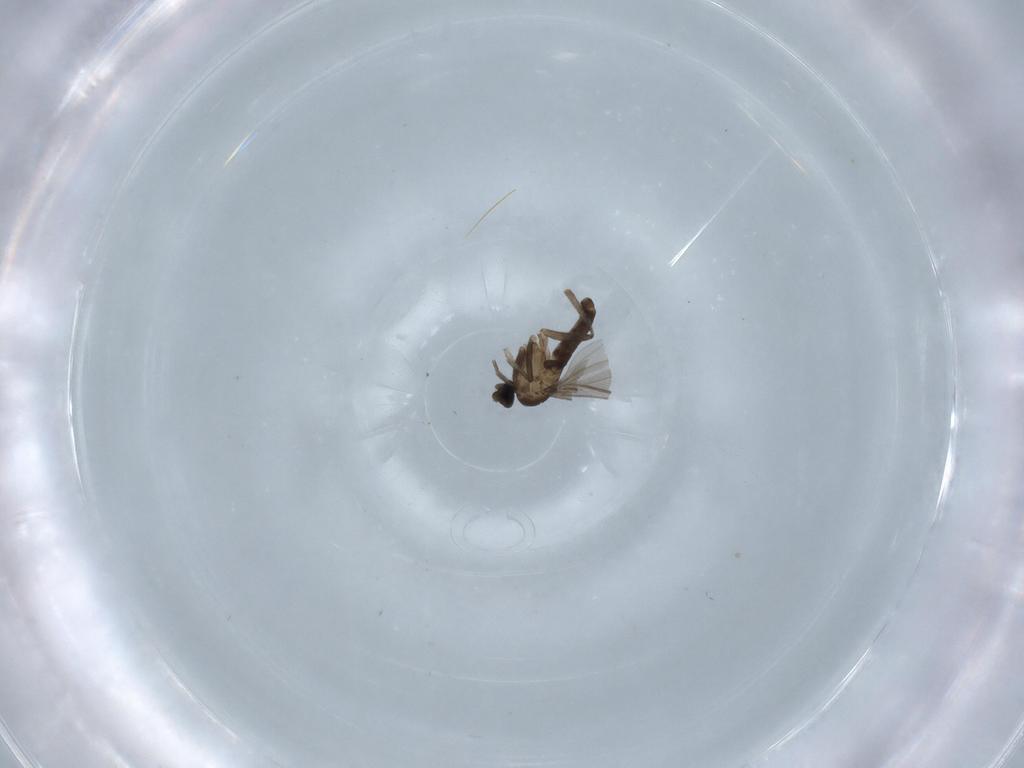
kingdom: Animalia
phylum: Arthropoda
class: Insecta
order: Diptera
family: Phoridae
